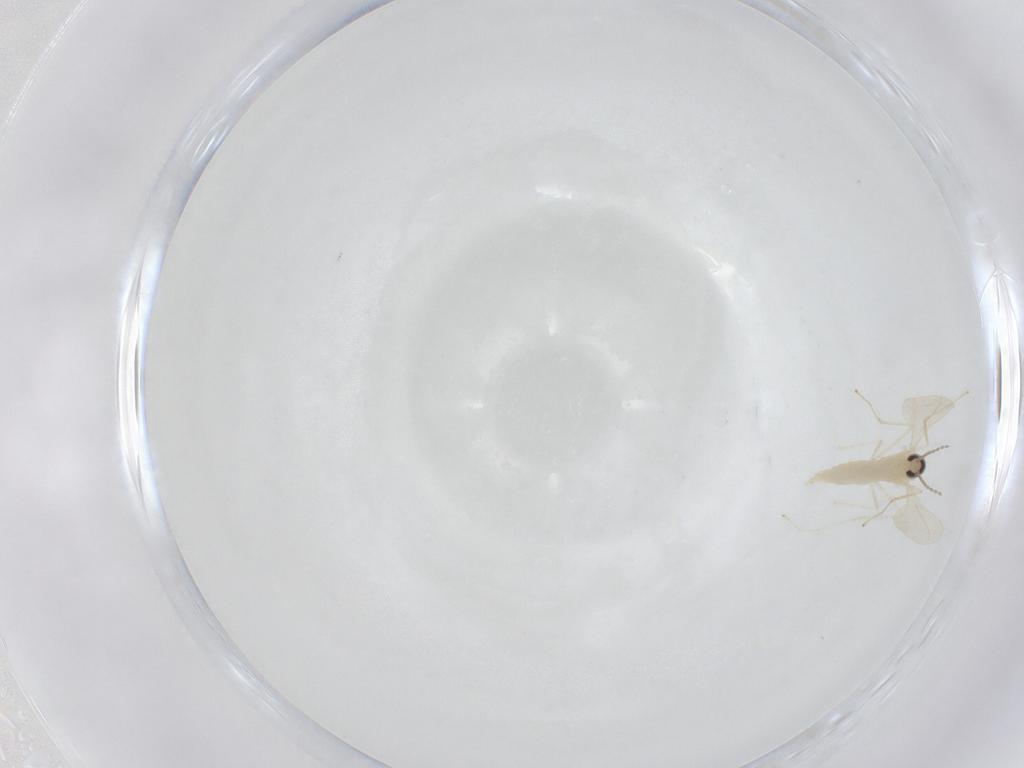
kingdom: Animalia
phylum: Arthropoda
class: Insecta
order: Diptera
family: Cecidomyiidae
